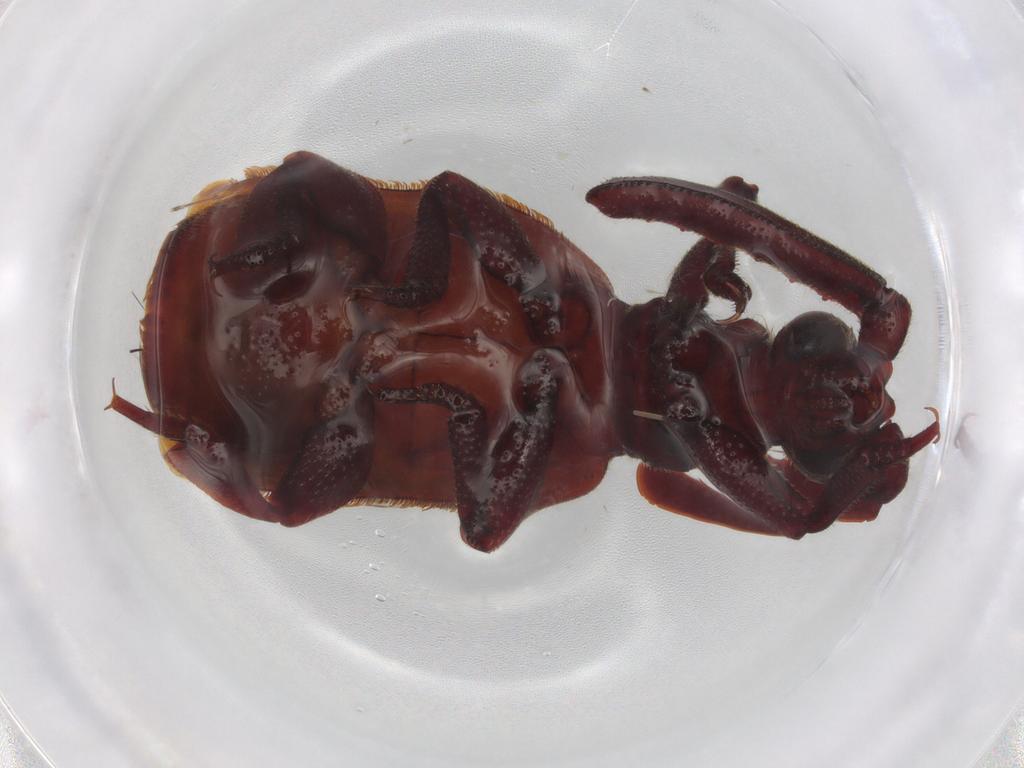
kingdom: Animalia
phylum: Arthropoda
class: Insecta
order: Coleoptera
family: Carabidae
